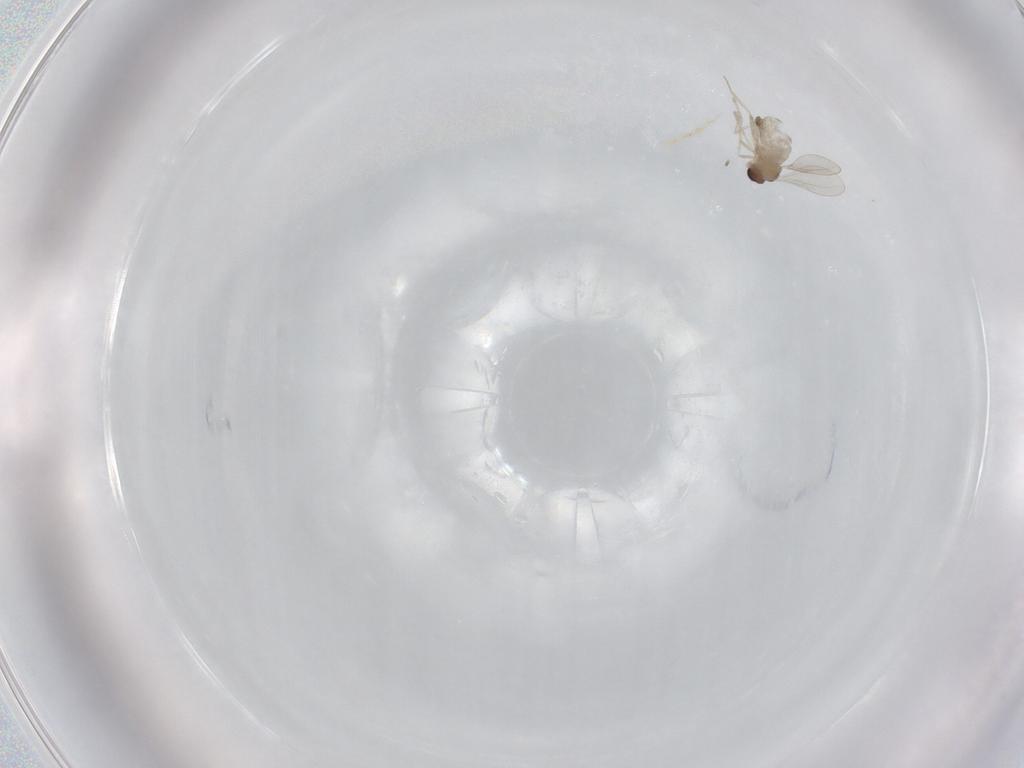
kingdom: Animalia
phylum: Arthropoda
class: Insecta
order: Diptera
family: Cecidomyiidae
